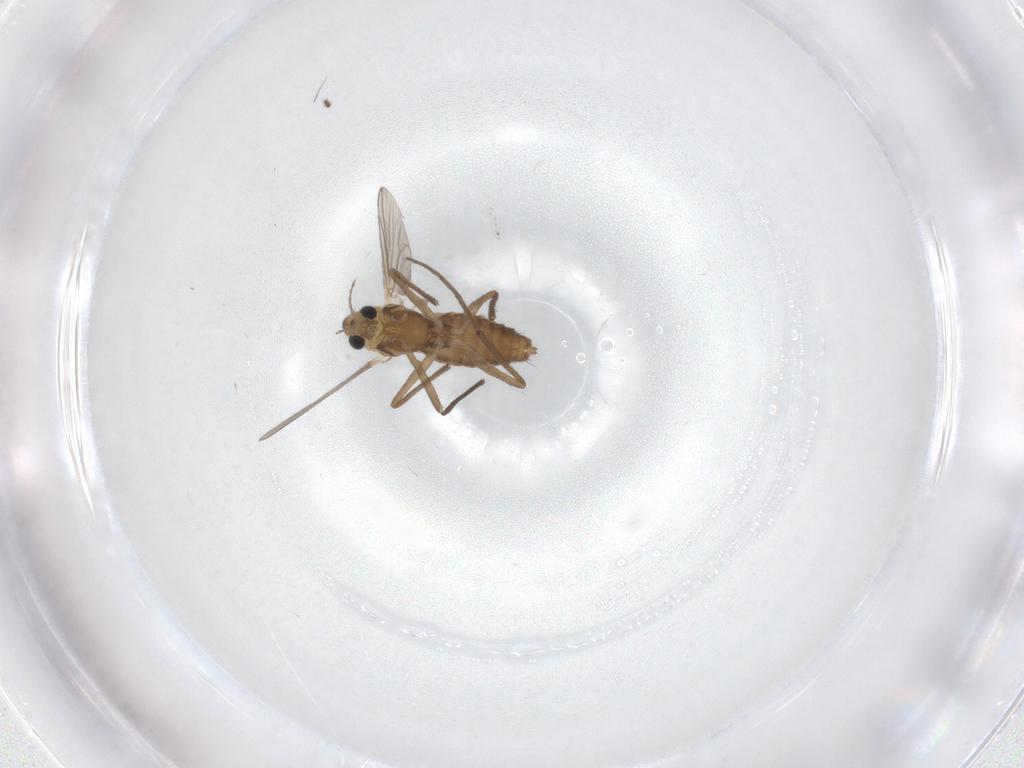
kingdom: Animalia
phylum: Arthropoda
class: Insecta
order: Diptera
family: Chironomidae
